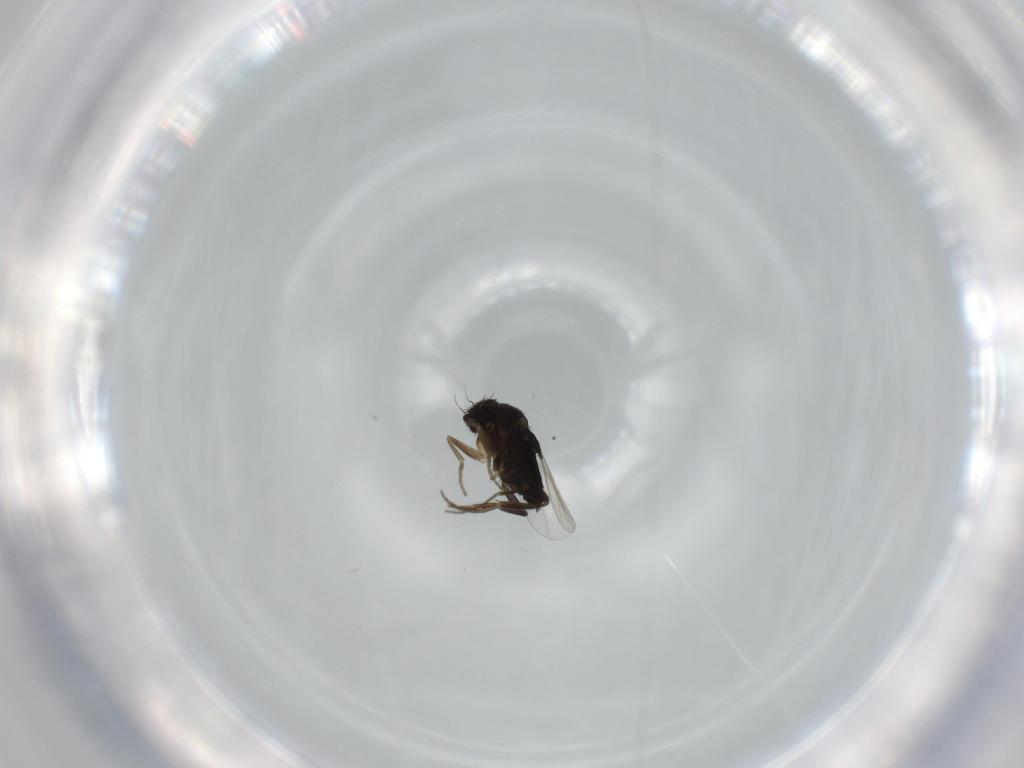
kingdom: Animalia
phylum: Arthropoda
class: Insecta
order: Diptera
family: Phoridae
